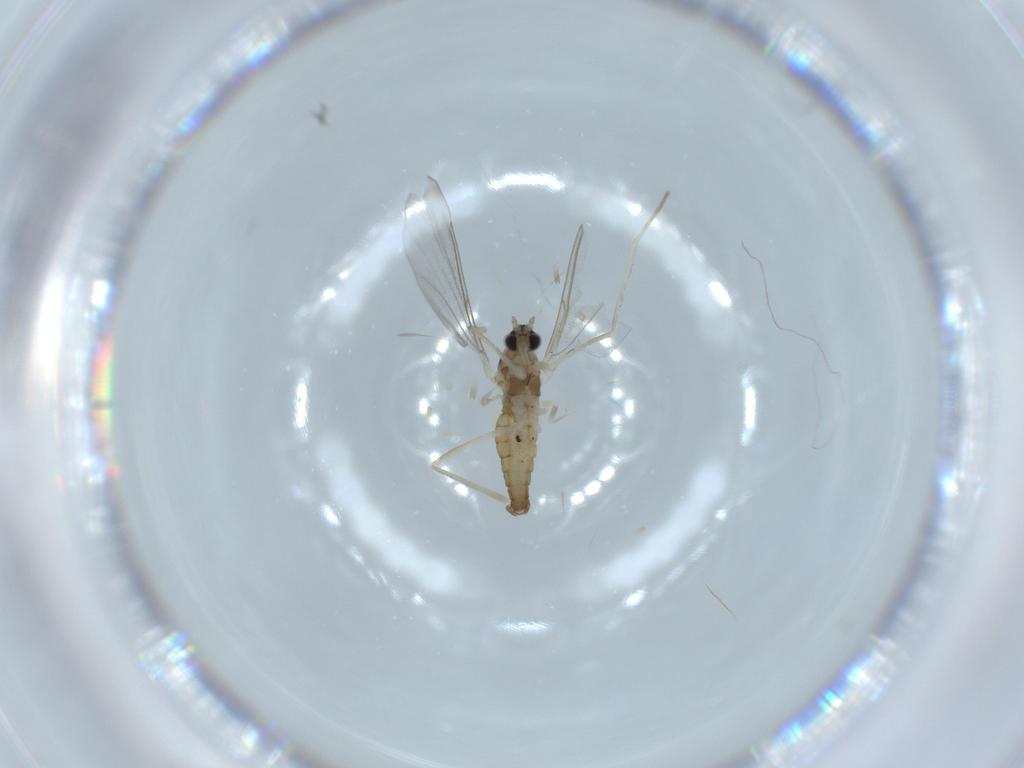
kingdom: Animalia
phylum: Arthropoda
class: Insecta
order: Diptera
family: Cecidomyiidae
